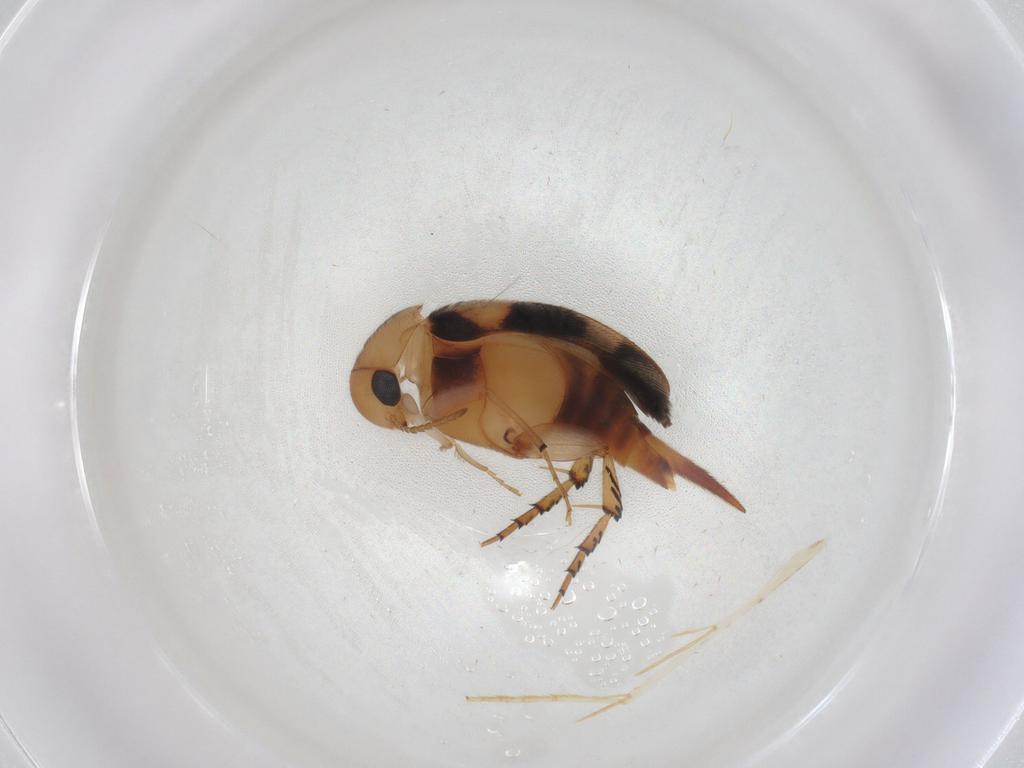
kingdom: Animalia
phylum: Arthropoda
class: Insecta
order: Coleoptera
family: Mordellidae
